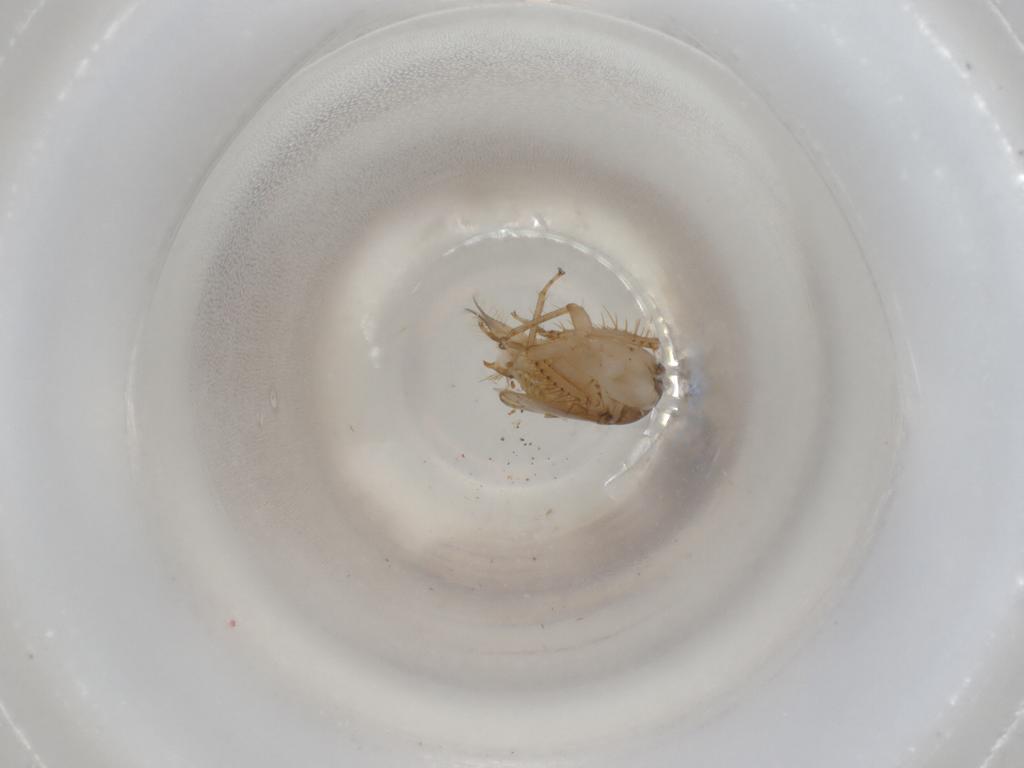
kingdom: Animalia
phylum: Arthropoda
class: Insecta
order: Hemiptera
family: Cicadellidae
